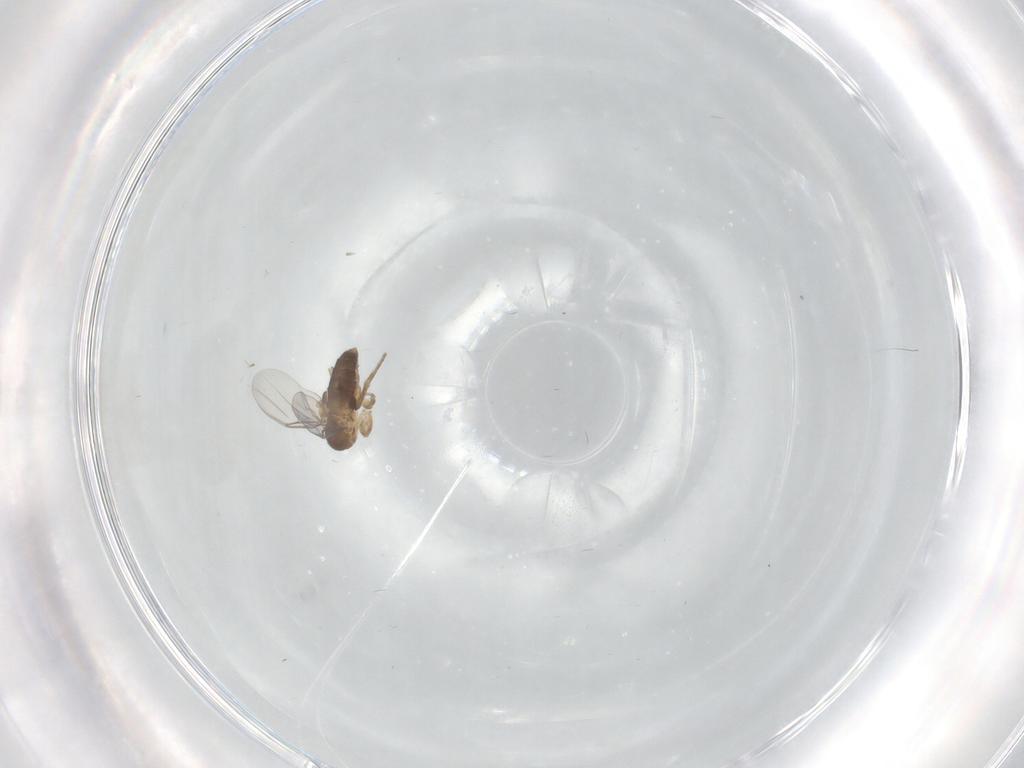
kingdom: Animalia
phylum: Arthropoda
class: Insecta
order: Diptera
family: Phoridae
